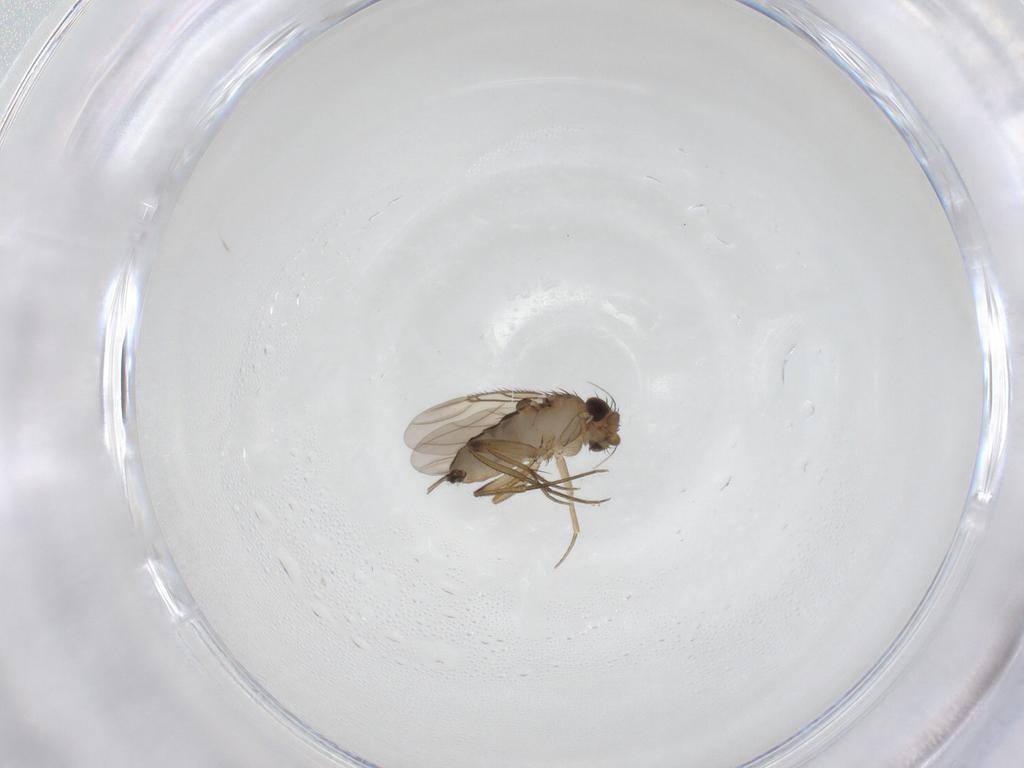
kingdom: Animalia
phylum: Arthropoda
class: Insecta
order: Diptera
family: Phoridae
